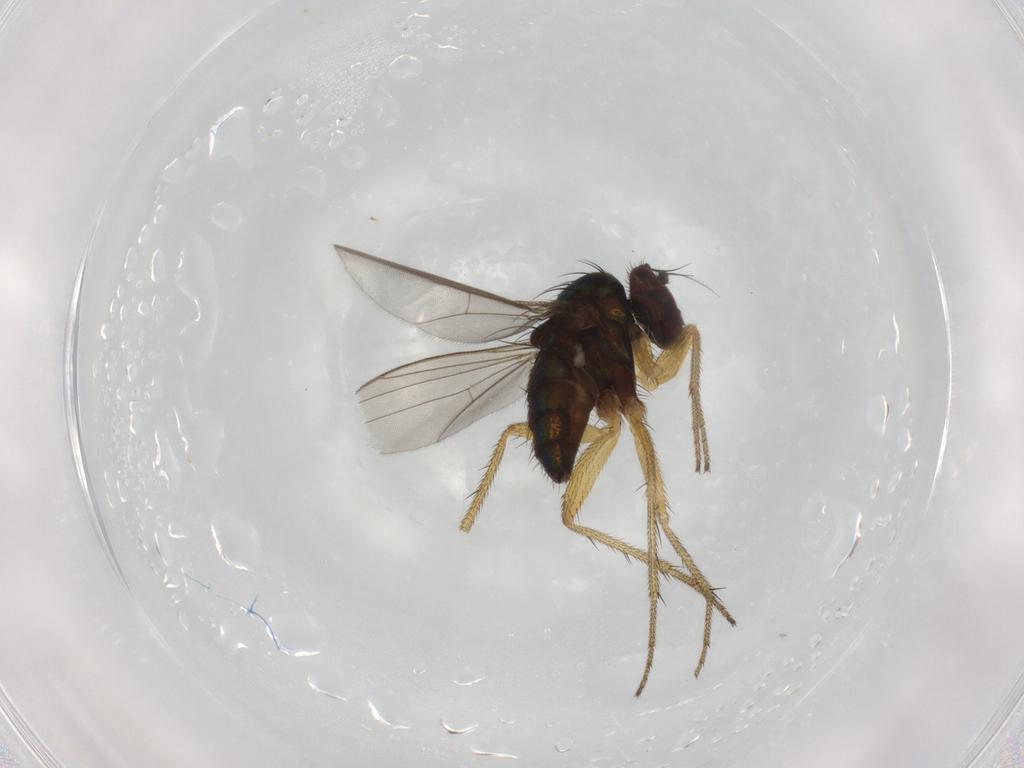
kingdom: Animalia
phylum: Arthropoda
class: Insecta
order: Diptera
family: Dolichopodidae
